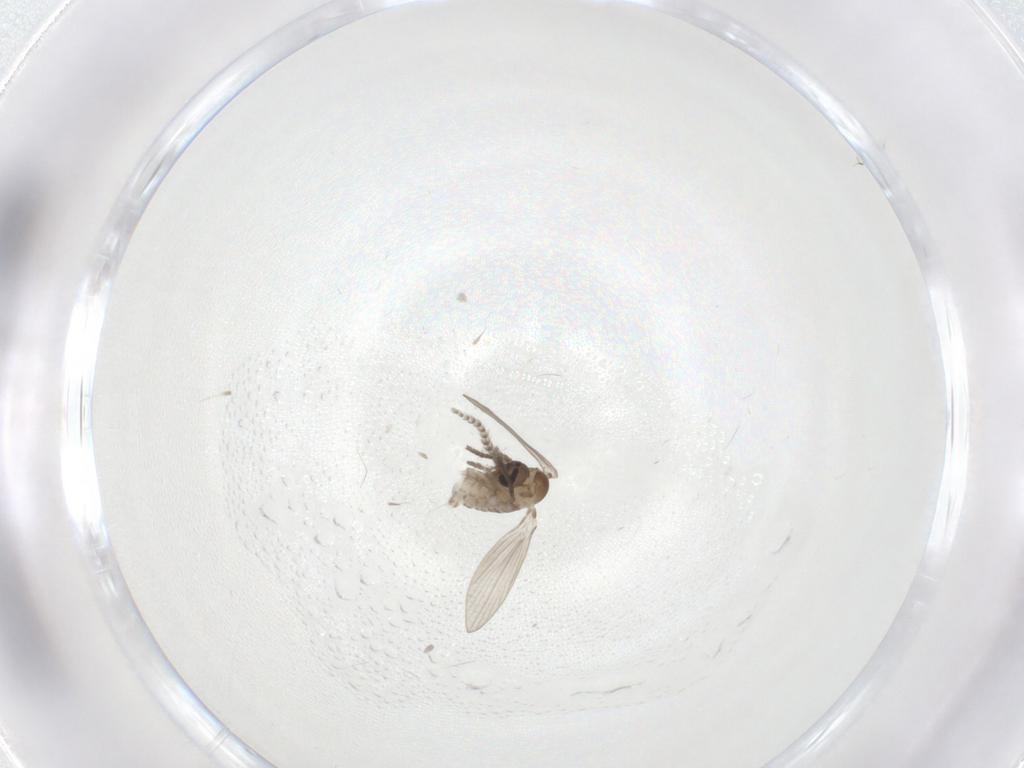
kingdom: Animalia
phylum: Arthropoda
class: Insecta
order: Diptera
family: Psychodidae
